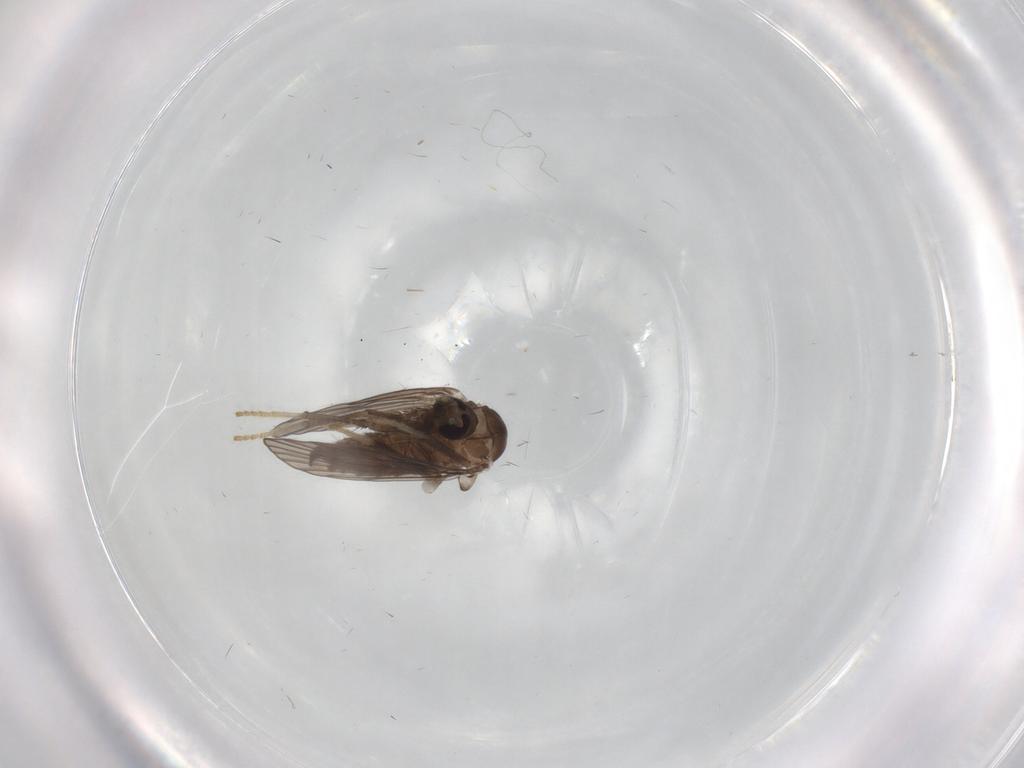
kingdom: Animalia
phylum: Arthropoda
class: Insecta
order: Diptera
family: Psychodidae
